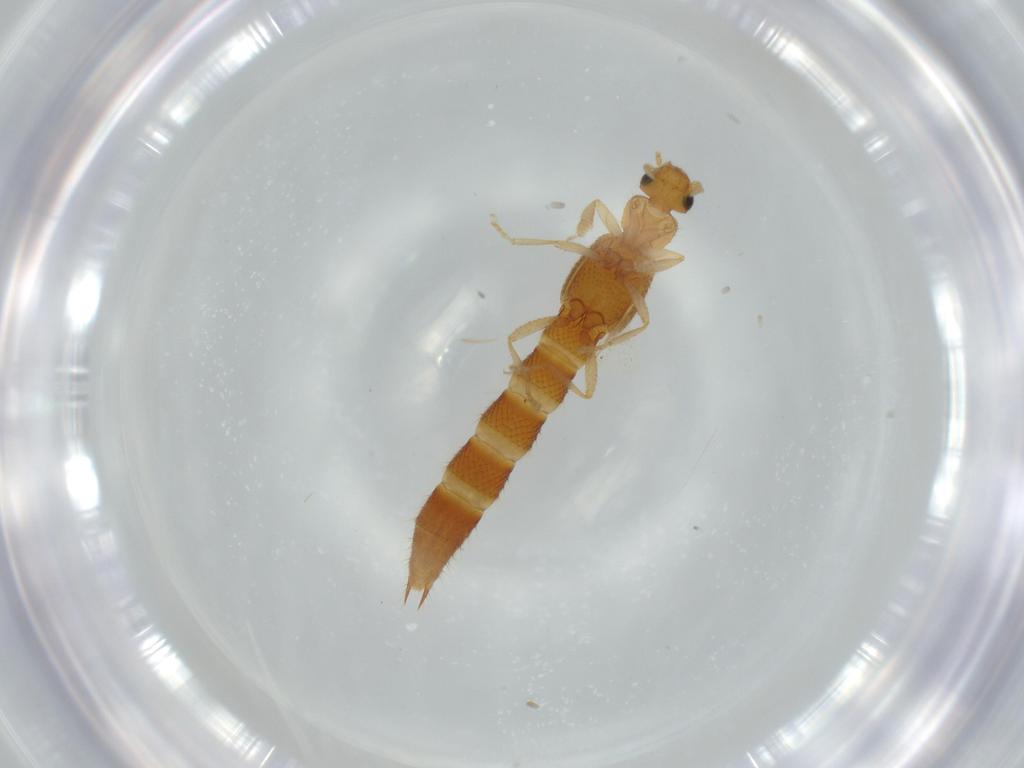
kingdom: Animalia
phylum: Arthropoda
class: Insecta
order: Coleoptera
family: Staphylinidae
